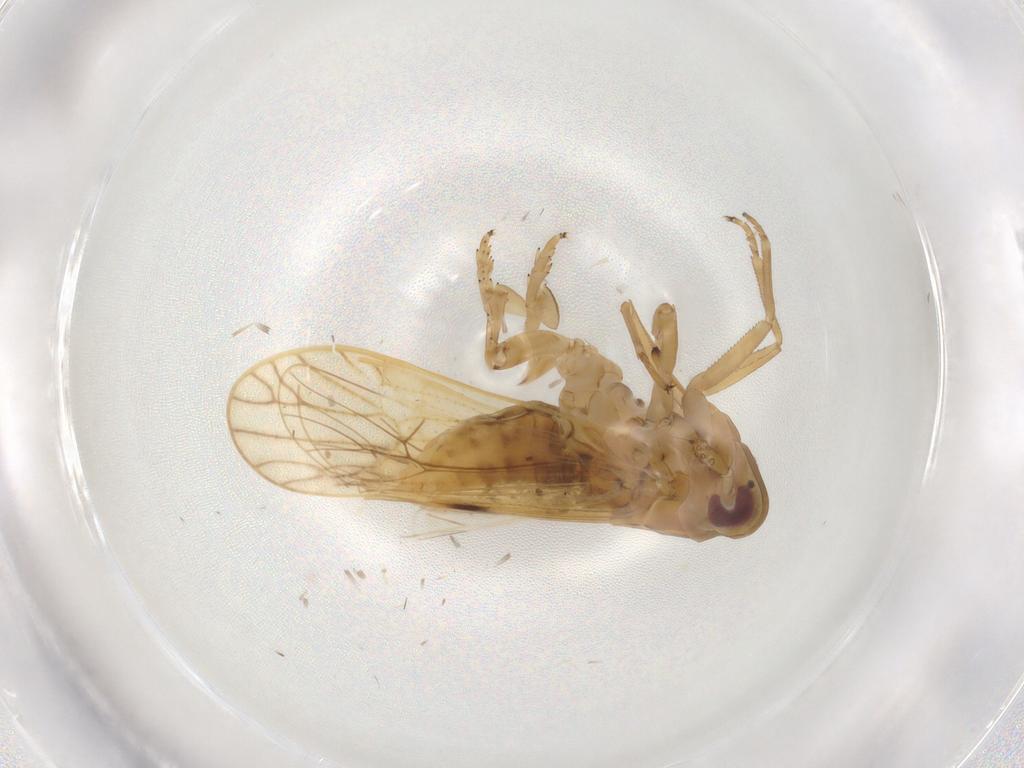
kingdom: Animalia
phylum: Arthropoda
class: Insecta
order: Hemiptera
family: Delphacidae
